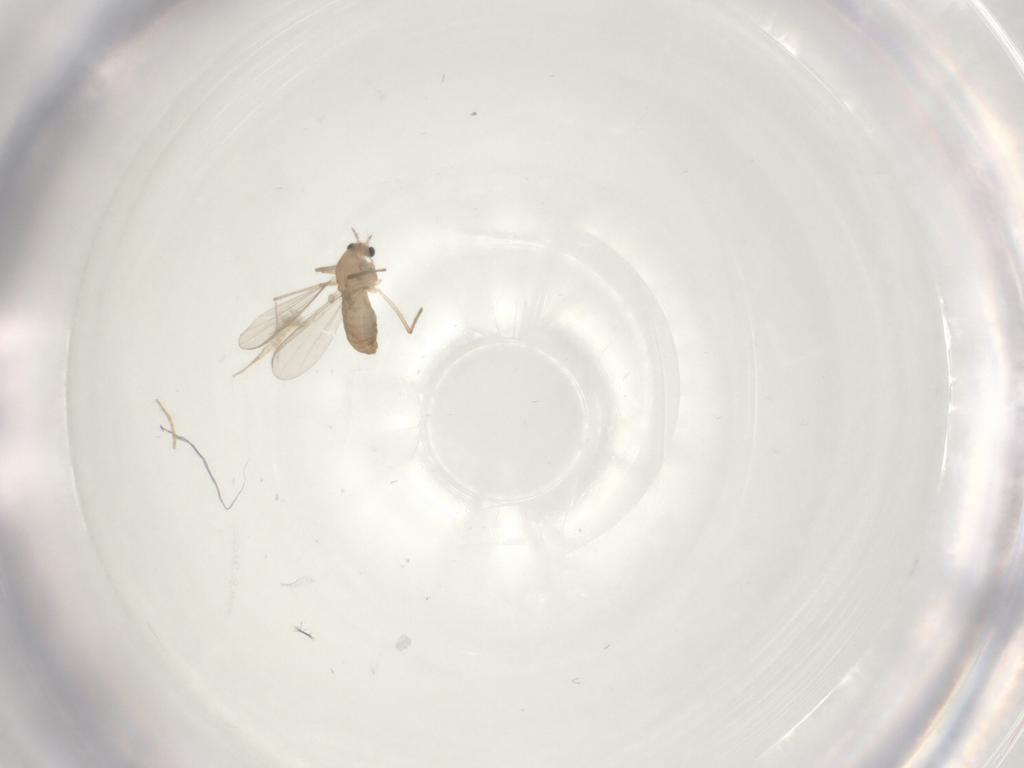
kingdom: Animalia
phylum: Arthropoda
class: Insecta
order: Diptera
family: Chironomidae
